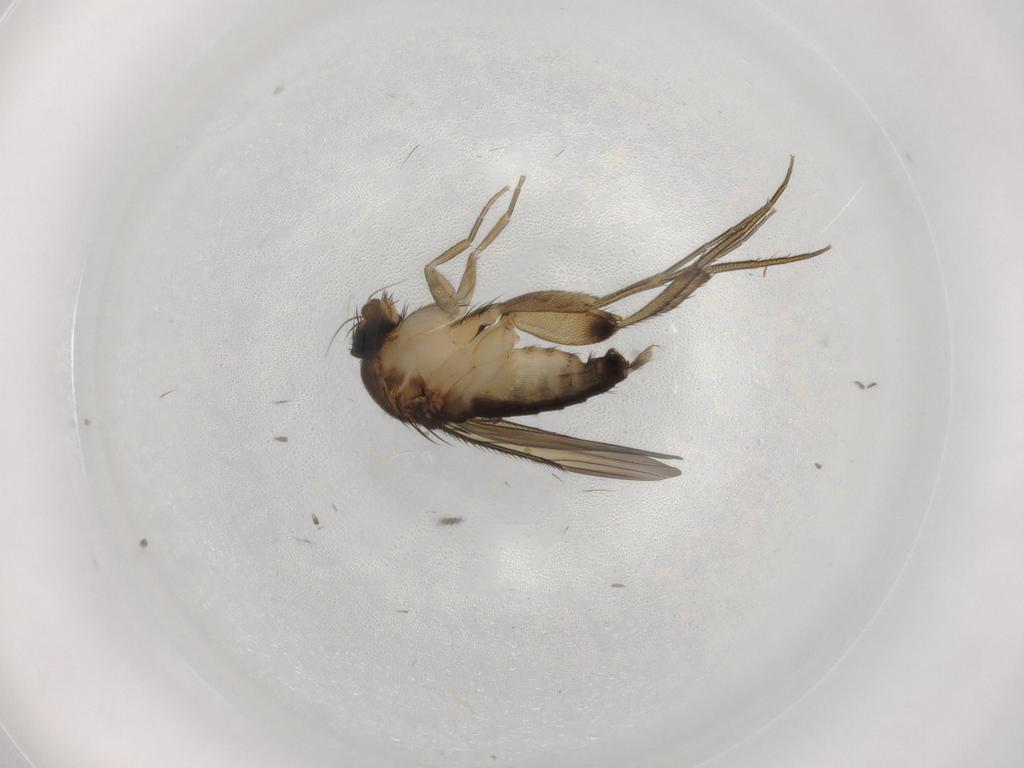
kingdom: Animalia
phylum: Arthropoda
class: Insecta
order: Diptera
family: Phoridae
